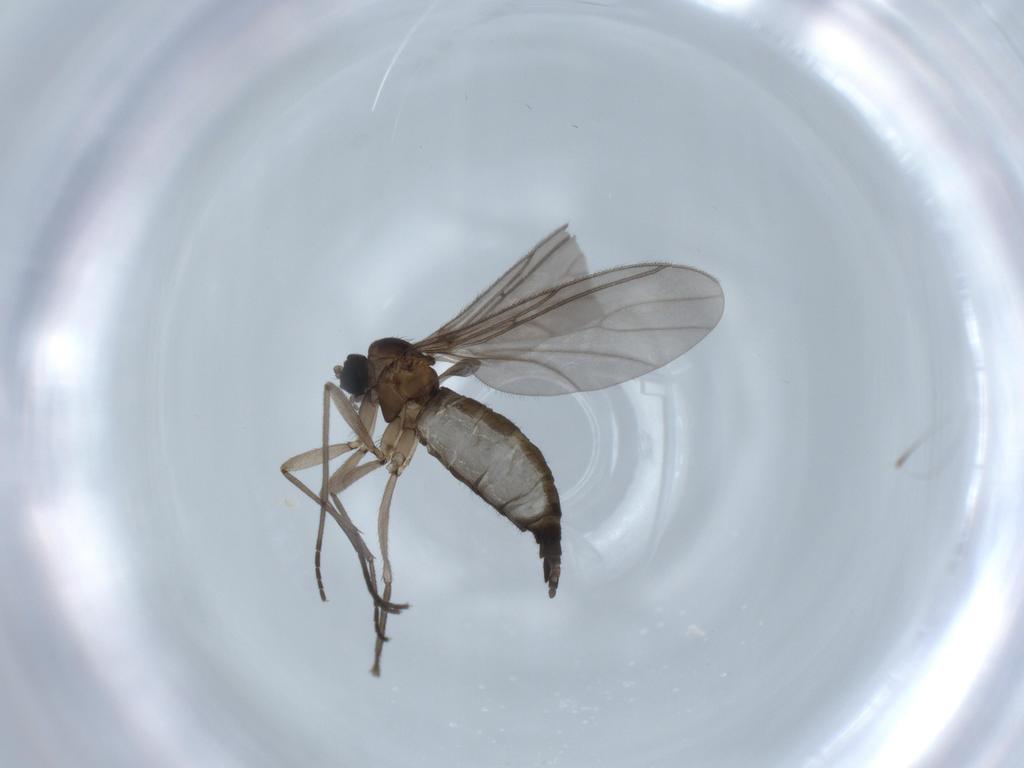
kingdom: Animalia
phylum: Arthropoda
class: Insecta
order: Diptera
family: Sciaridae
